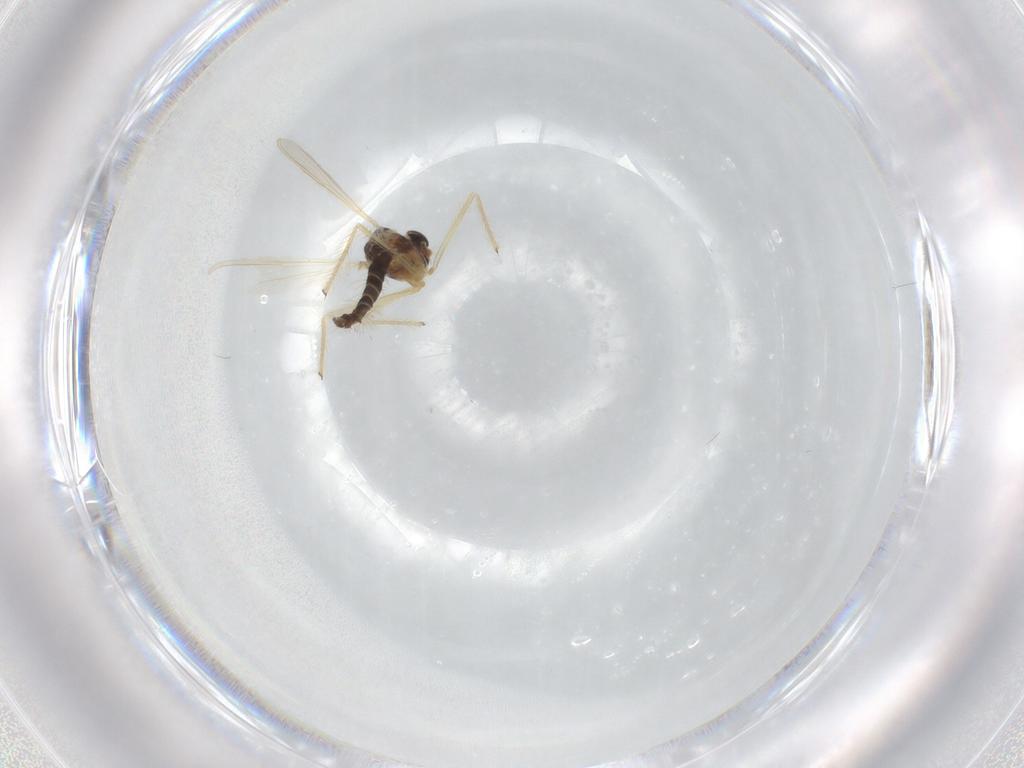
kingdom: Animalia
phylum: Arthropoda
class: Insecta
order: Diptera
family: Chironomidae
